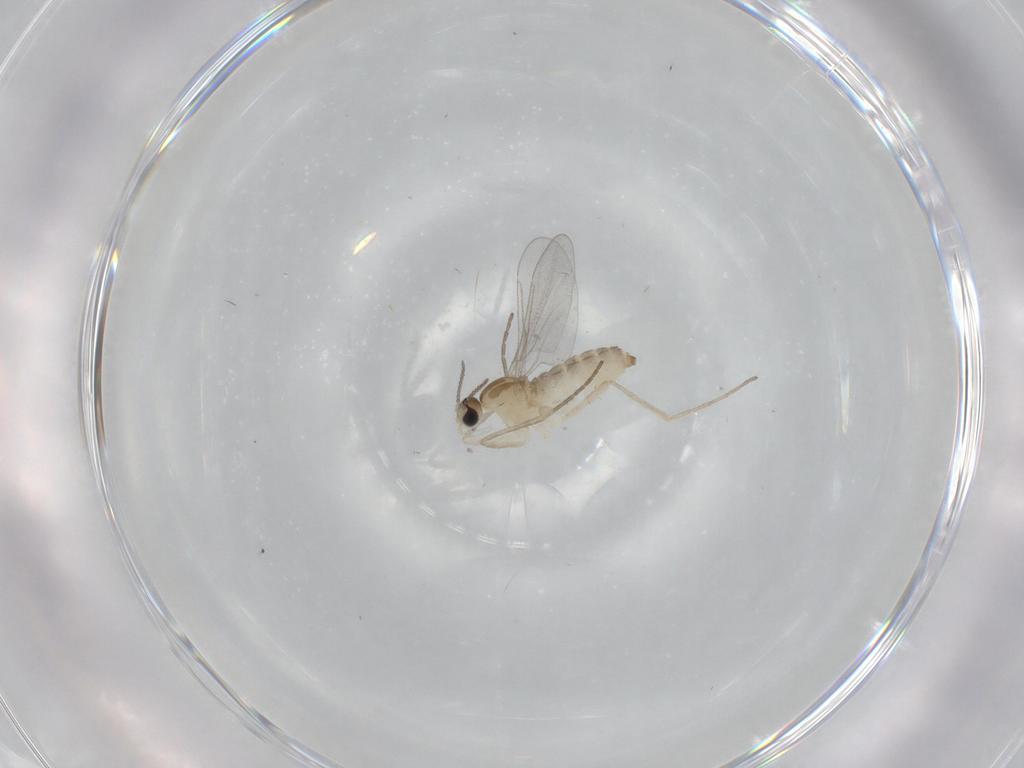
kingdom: Animalia
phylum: Arthropoda
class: Insecta
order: Diptera
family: Cecidomyiidae
